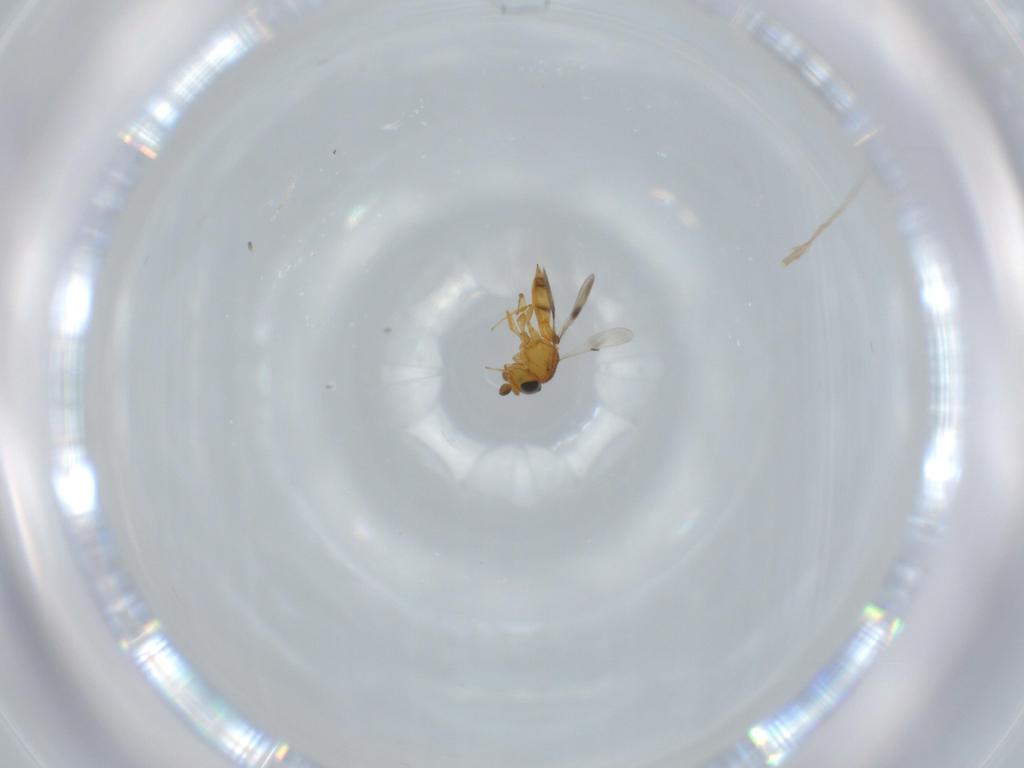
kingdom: Animalia
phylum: Arthropoda
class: Insecta
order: Hymenoptera
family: Scelionidae
